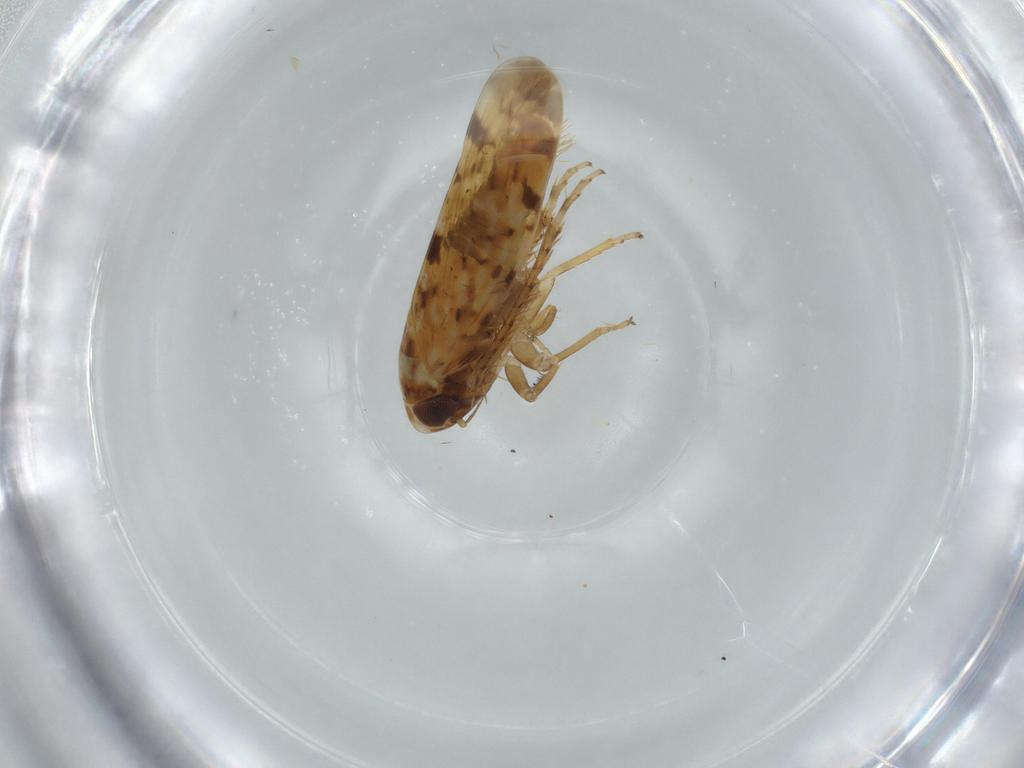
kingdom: Animalia
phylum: Arthropoda
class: Insecta
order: Hemiptera
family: Cicadellidae
